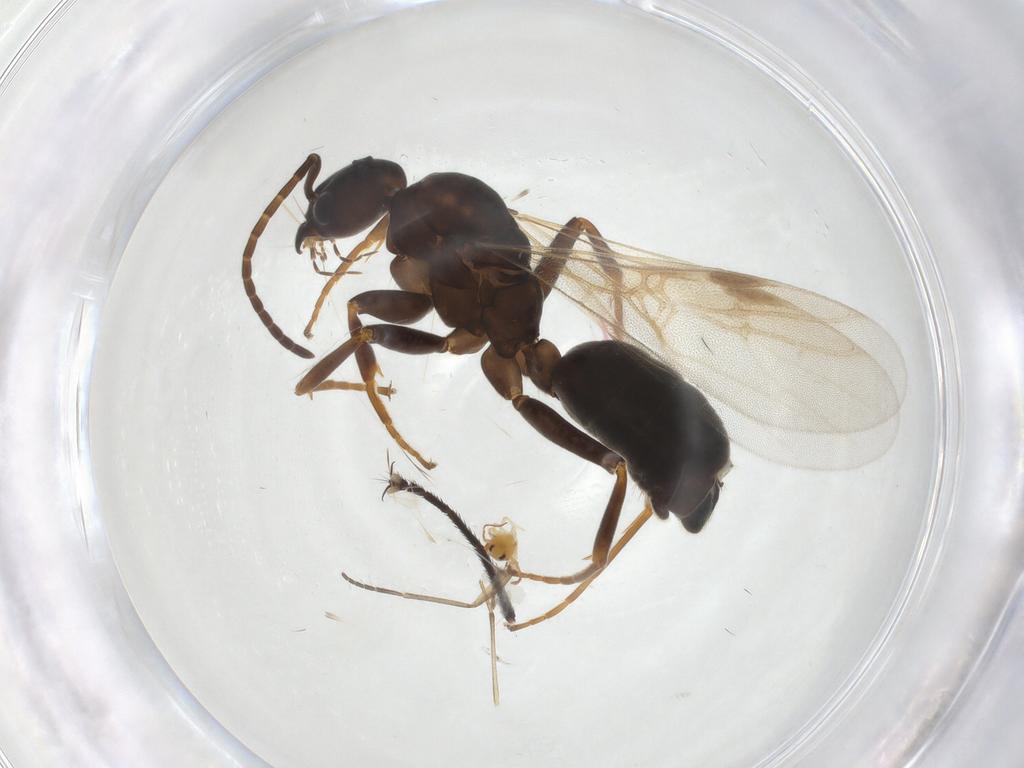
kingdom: Animalia
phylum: Arthropoda
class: Insecta
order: Hymenoptera
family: Formicidae
